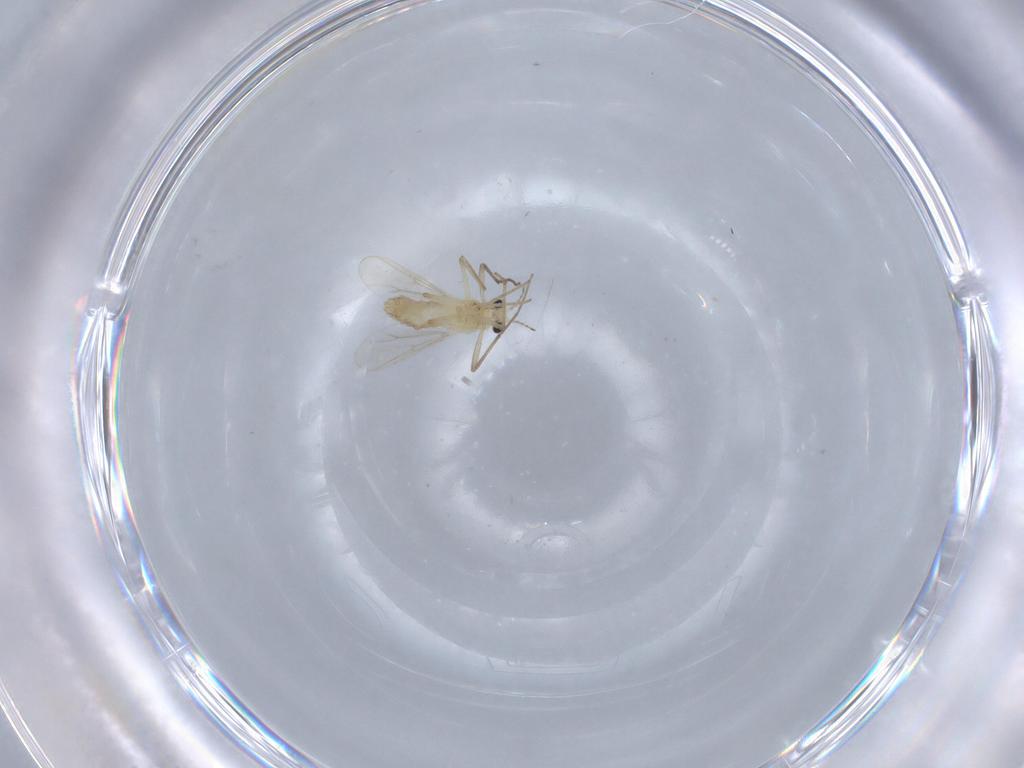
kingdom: Animalia
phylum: Arthropoda
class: Insecta
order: Diptera
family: Chironomidae
